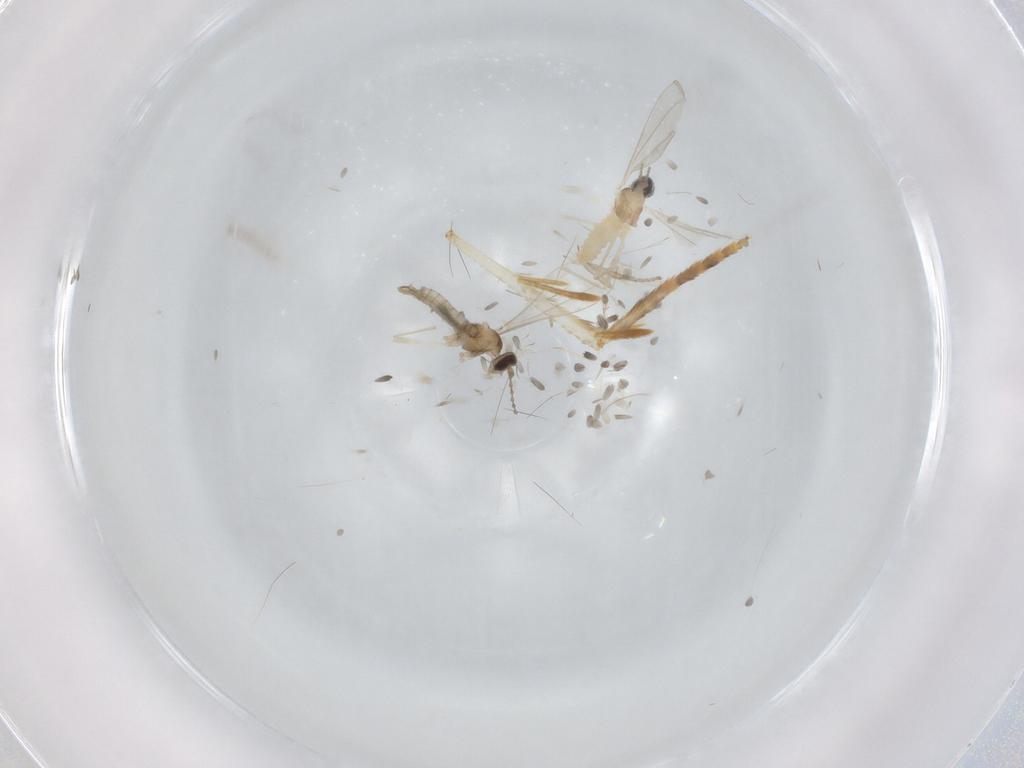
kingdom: Animalia
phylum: Arthropoda
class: Insecta
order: Diptera
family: Cecidomyiidae
